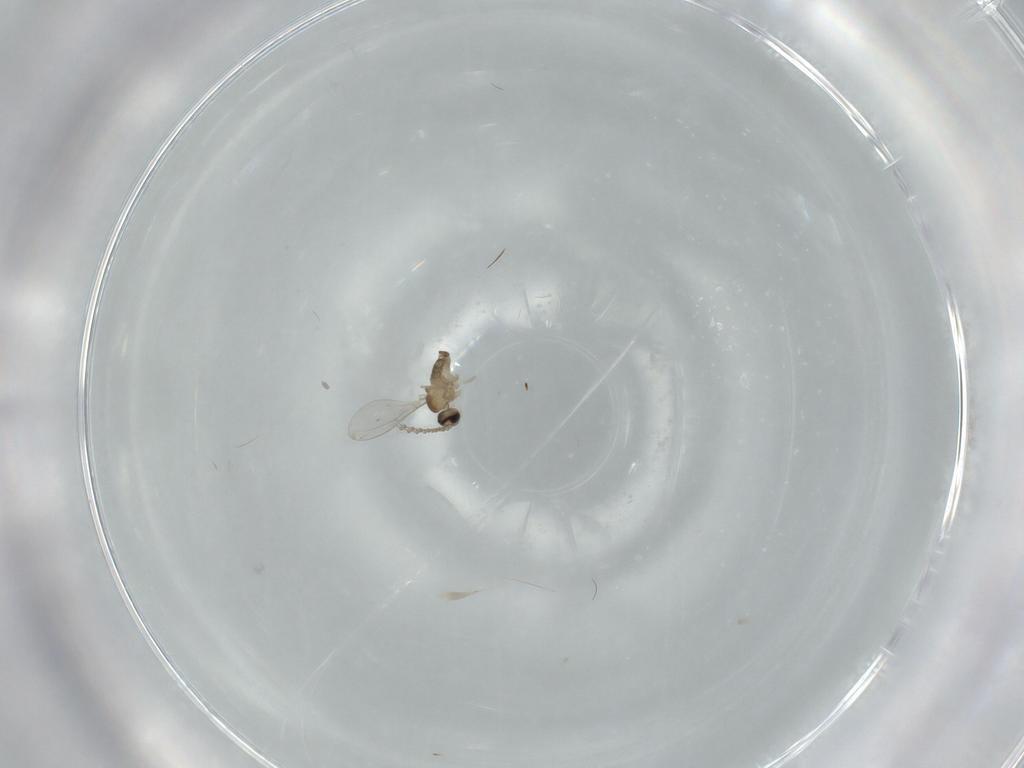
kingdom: Animalia
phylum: Arthropoda
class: Insecta
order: Diptera
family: Cecidomyiidae
